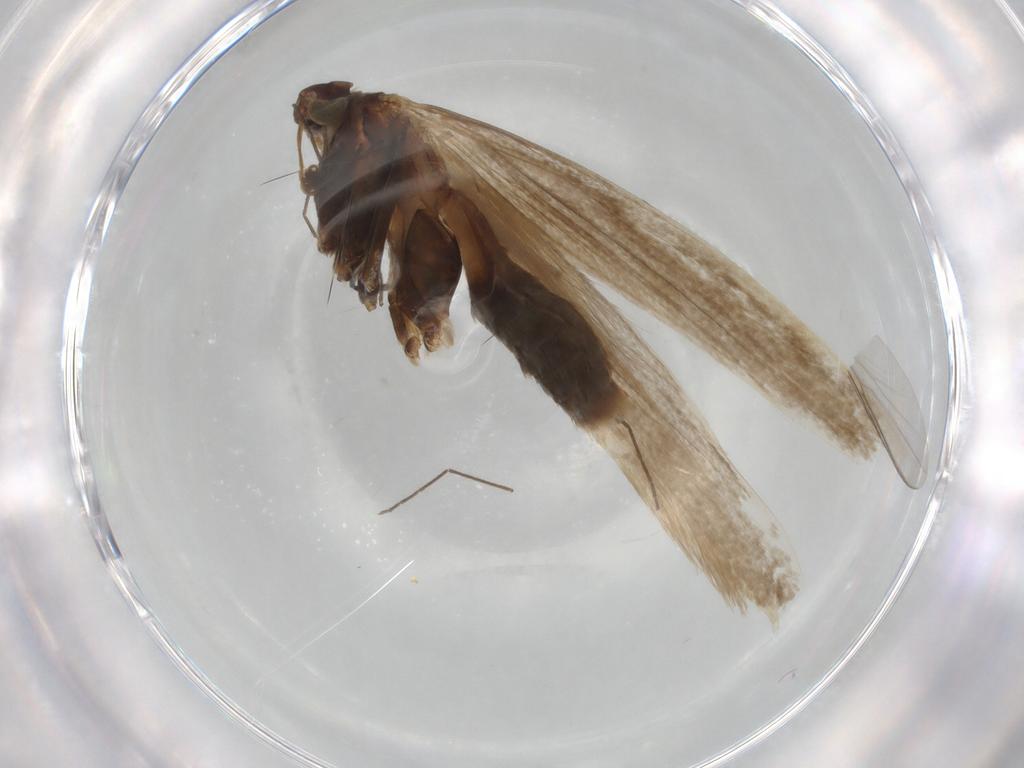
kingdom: Animalia
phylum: Arthropoda
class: Insecta
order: Lepidoptera
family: Coleophoridae
